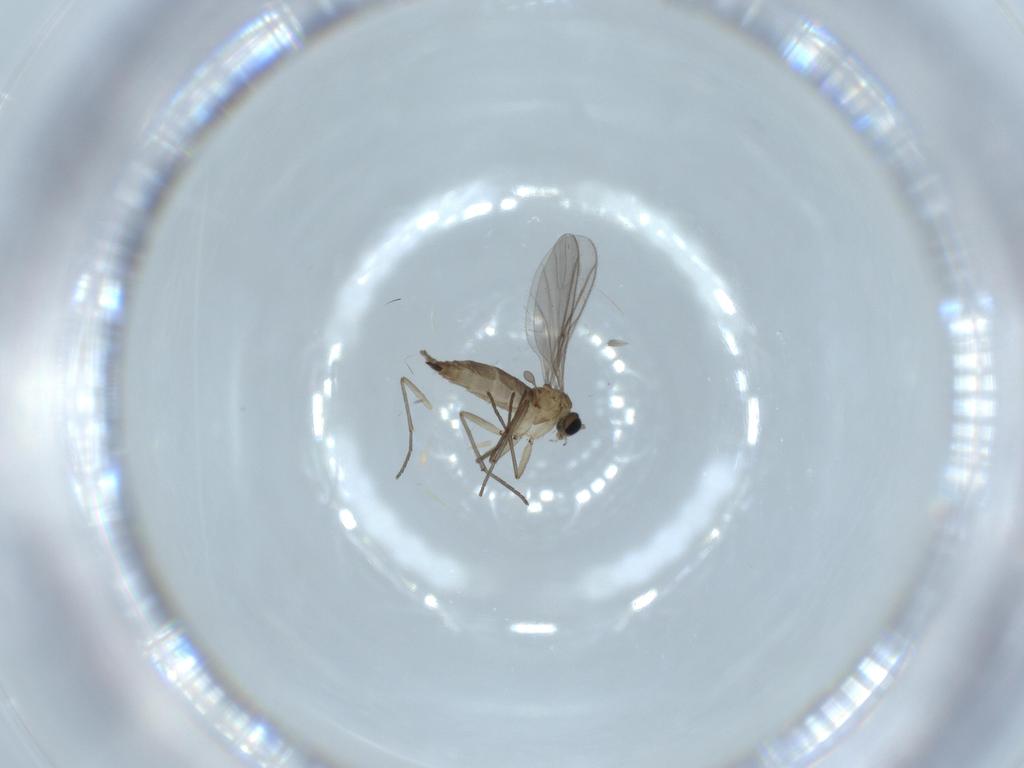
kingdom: Animalia
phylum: Arthropoda
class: Insecta
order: Diptera
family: Sciaridae
